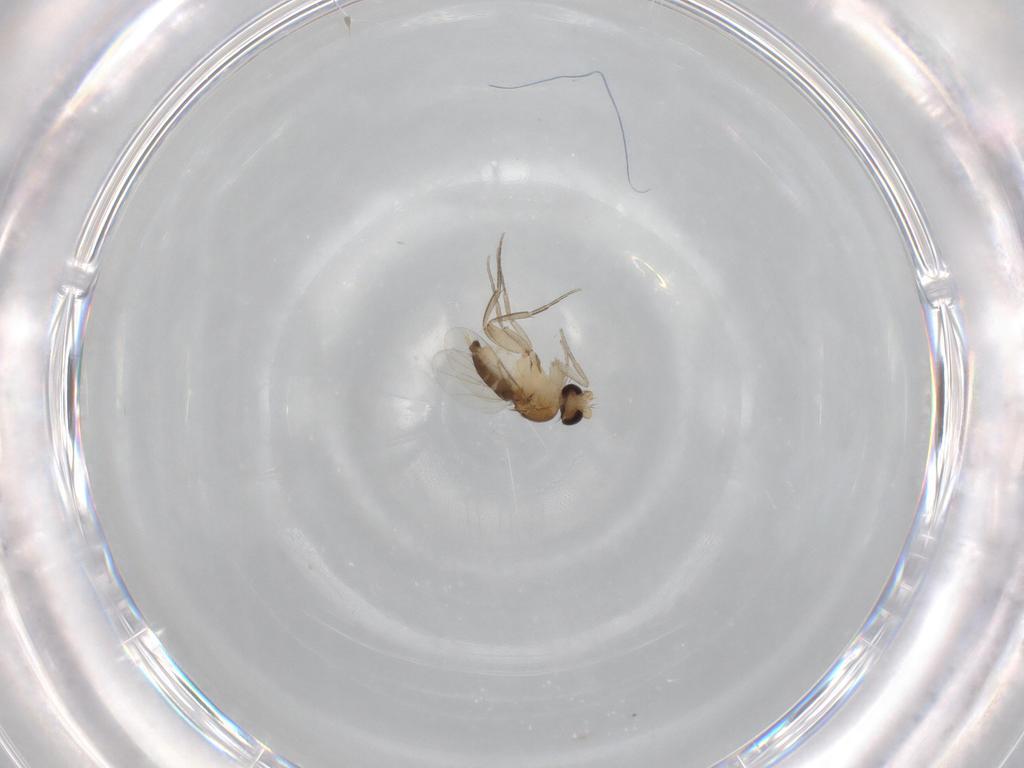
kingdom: Animalia
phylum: Arthropoda
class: Insecta
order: Diptera
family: Phoridae
